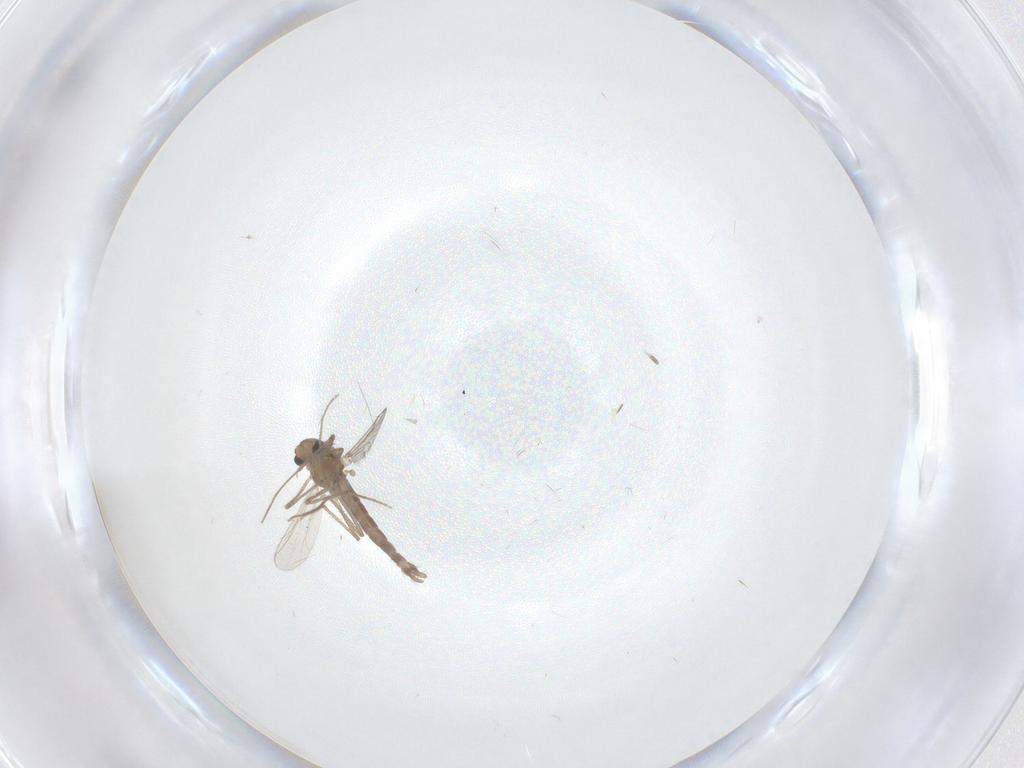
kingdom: Animalia
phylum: Arthropoda
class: Insecta
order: Diptera
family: Chironomidae
